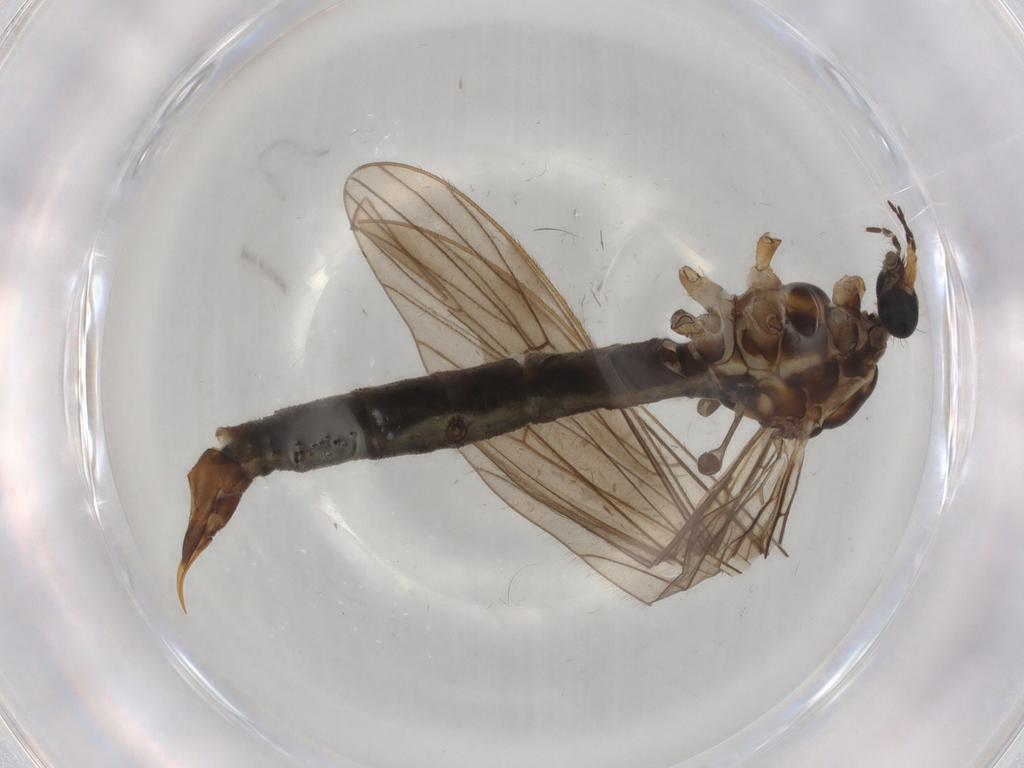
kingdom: Animalia
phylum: Arthropoda
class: Insecta
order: Diptera
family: Limoniidae
